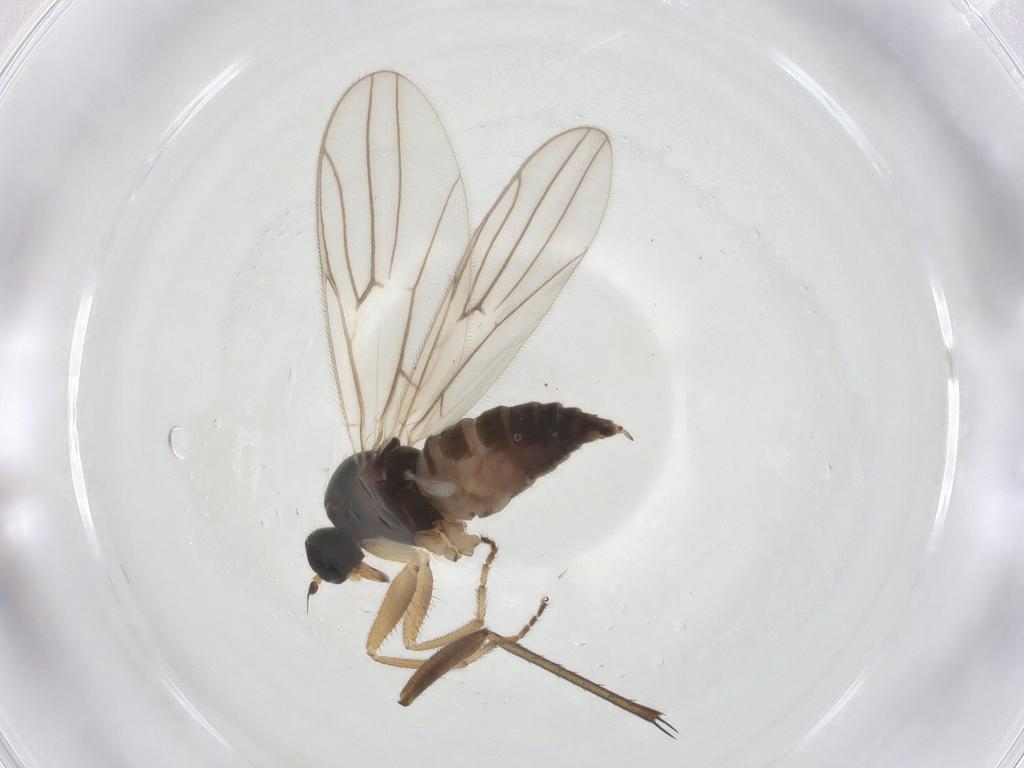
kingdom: Animalia
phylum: Arthropoda
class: Insecta
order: Diptera
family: Hybotidae
